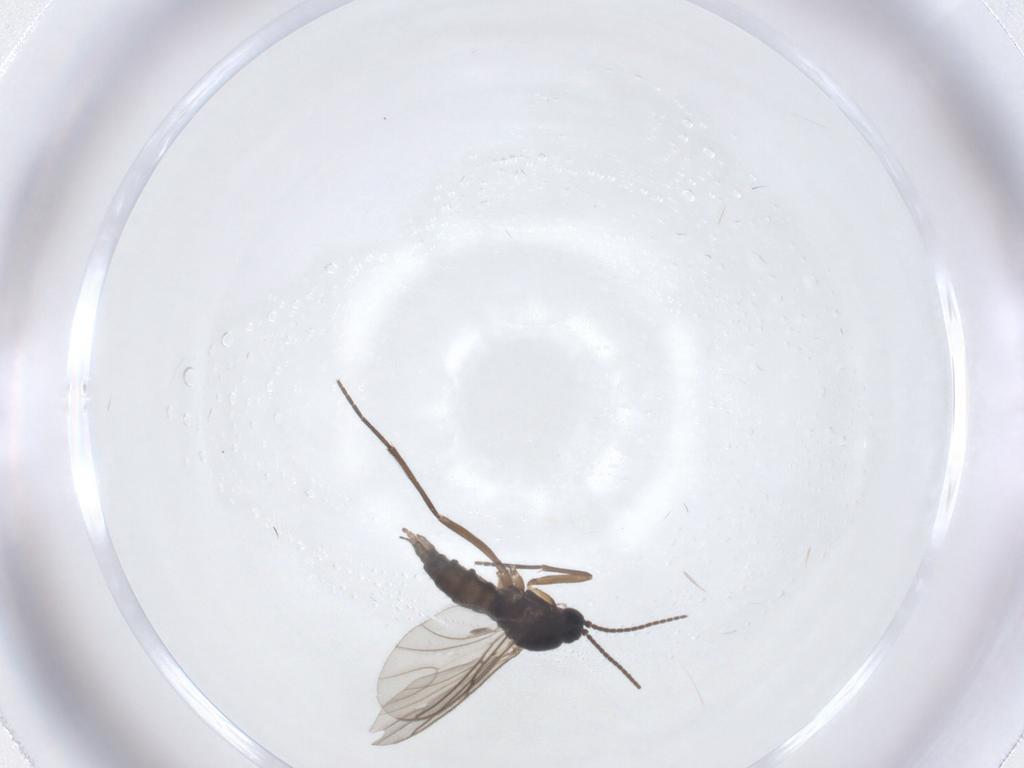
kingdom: Animalia
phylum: Arthropoda
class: Insecta
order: Diptera
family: Sciaridae
